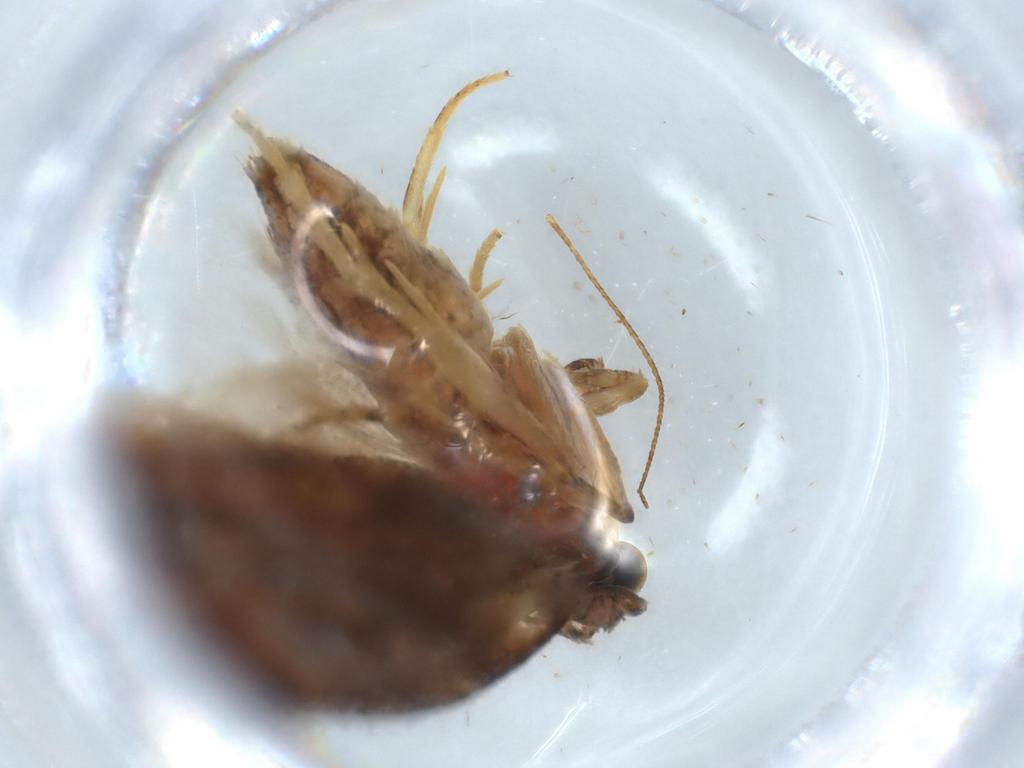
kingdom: Animalia
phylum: Arthropoda
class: Insecta
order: Lepidoptera
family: Tortricidae
